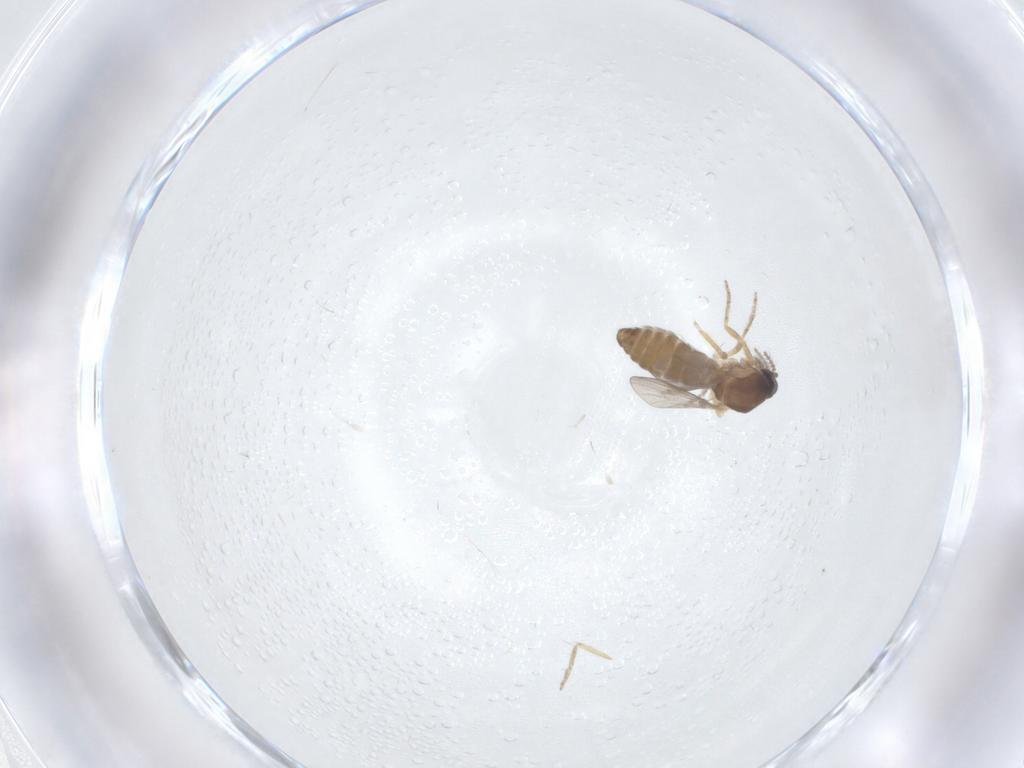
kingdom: Animalia
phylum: Arthropoda
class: Insecta
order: Diptera
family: Ceratopogonidae
